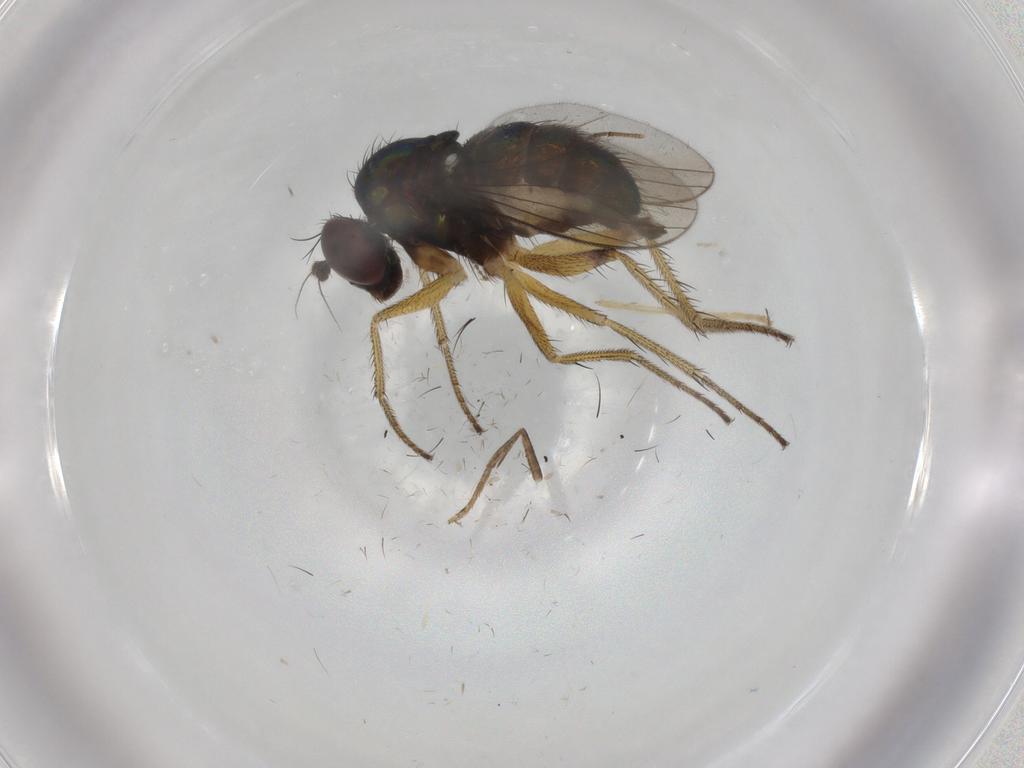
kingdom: Animalia
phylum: Arthropoda
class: Insecta
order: Diptera
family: Dolichopodidae
